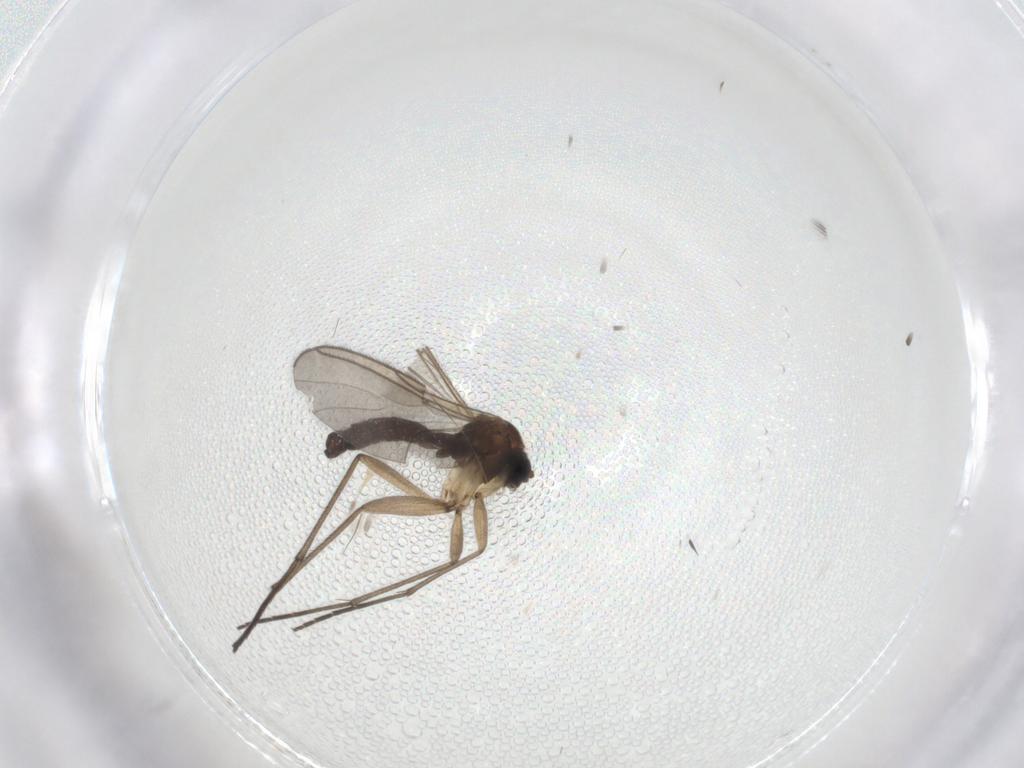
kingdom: Animalia
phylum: Arthropoda
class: Insecta
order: Diptera
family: Sciaridae
